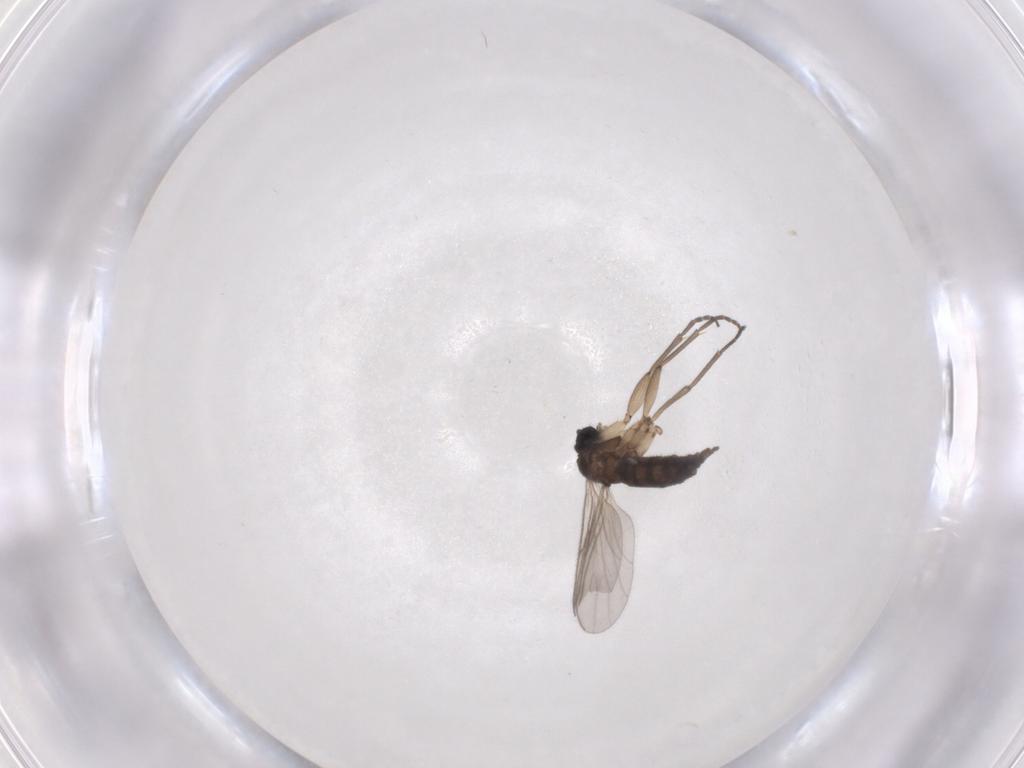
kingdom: Animalia
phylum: Arthropoda
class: Insecta
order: Diptera
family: Sciaridae
